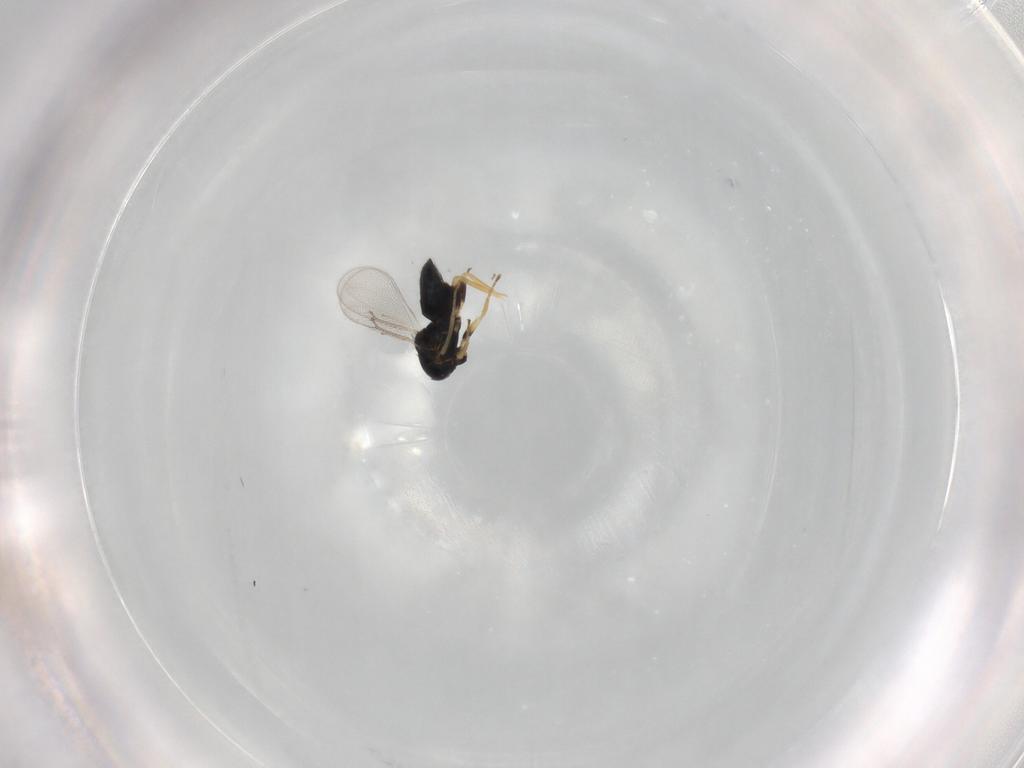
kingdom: Animalia
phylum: Arthropoda
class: Insecta
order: Hymenoptera
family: Eulophidae
